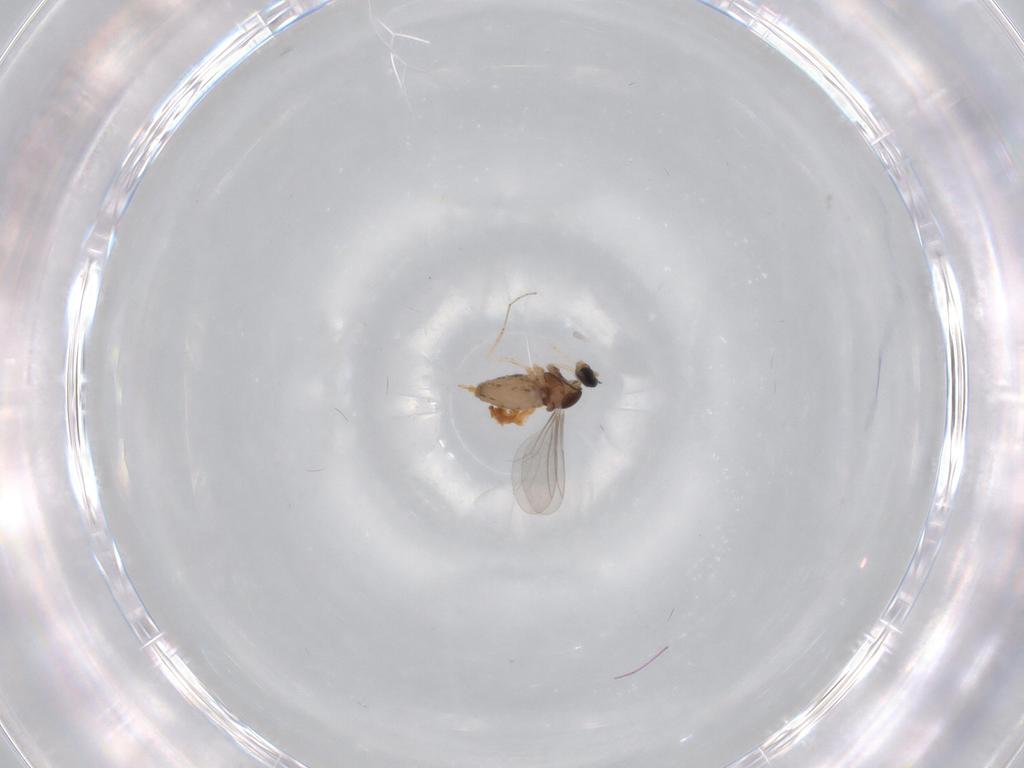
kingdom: Animalia
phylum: Arthropoda
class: Insecta
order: Diptera
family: Cecidomyiidae
